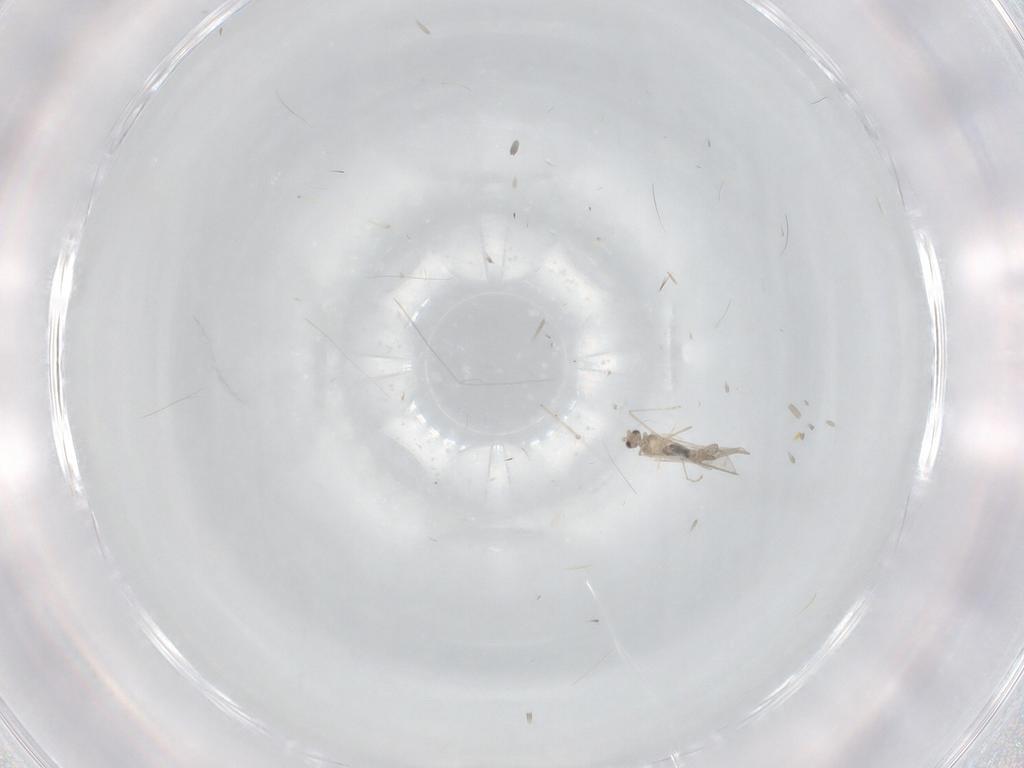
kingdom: Animalia
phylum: Arthropoda
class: Insecta
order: Diptera
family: Cecidomyiidae
